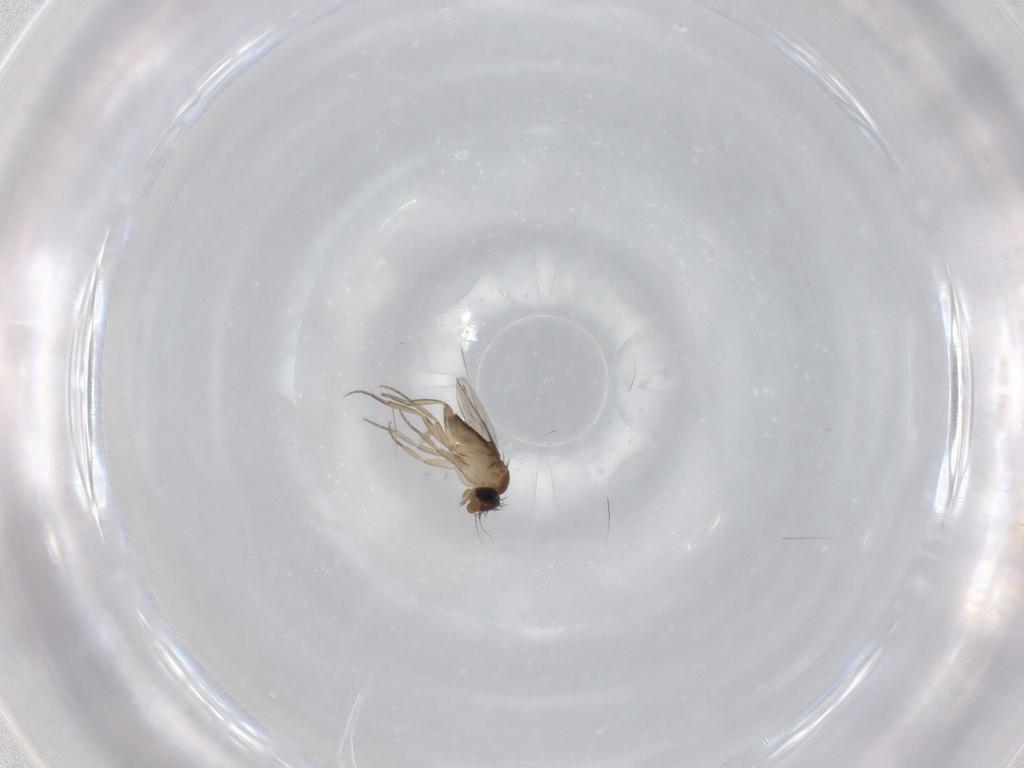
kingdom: Animalia
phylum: Arthropoda
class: Insecta
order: Diptera
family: Phoridae
